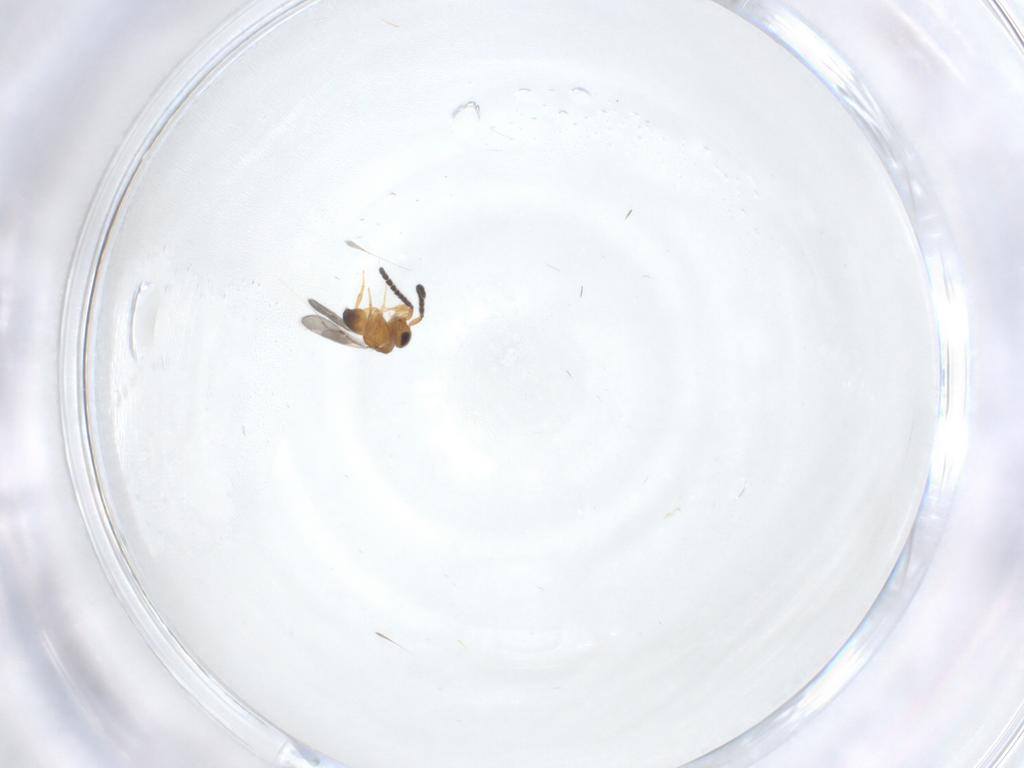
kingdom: Animalia
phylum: Arthropoda
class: Insecta
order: Hymenoptera
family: Ceraphronidae
